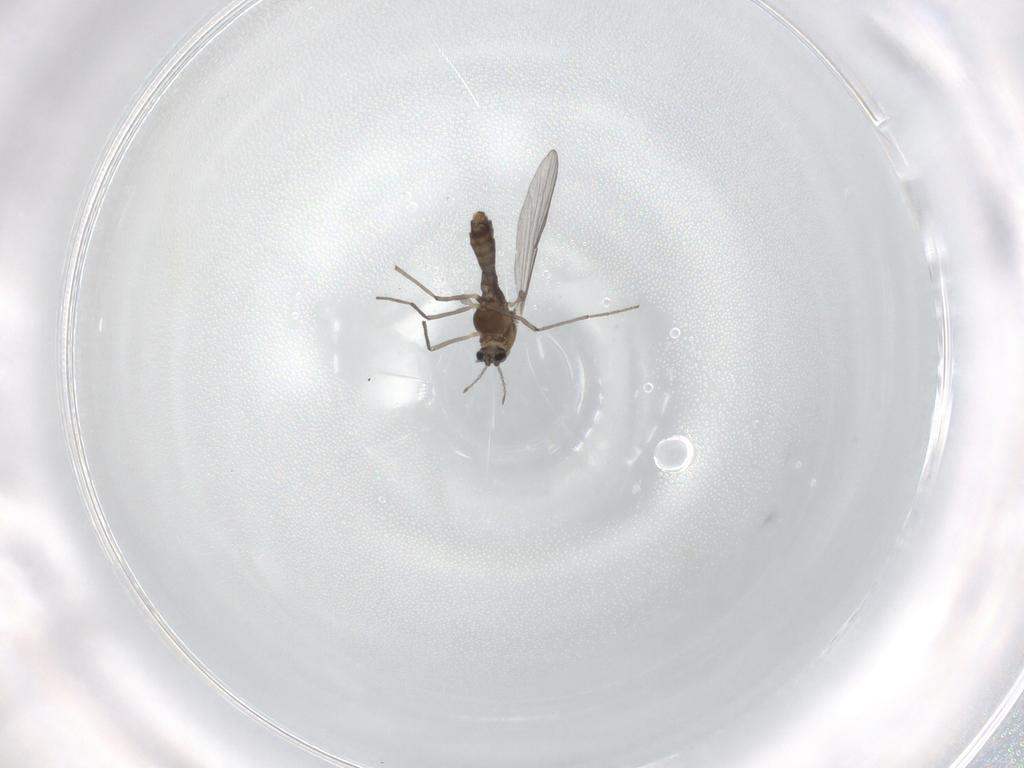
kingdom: Animalia
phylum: Arthropoda
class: Insecta
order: Diptera
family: Chironomidae
